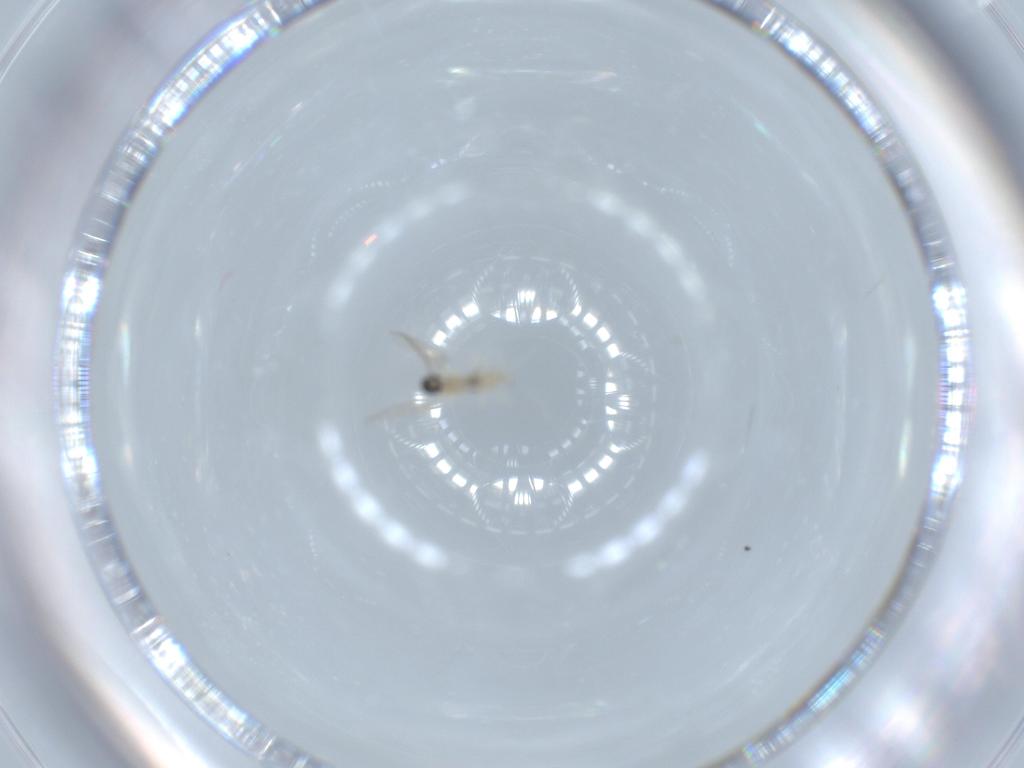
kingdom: Animalia
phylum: Arthropoda
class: Insecta
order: Diptera
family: Cecidomyiidae
